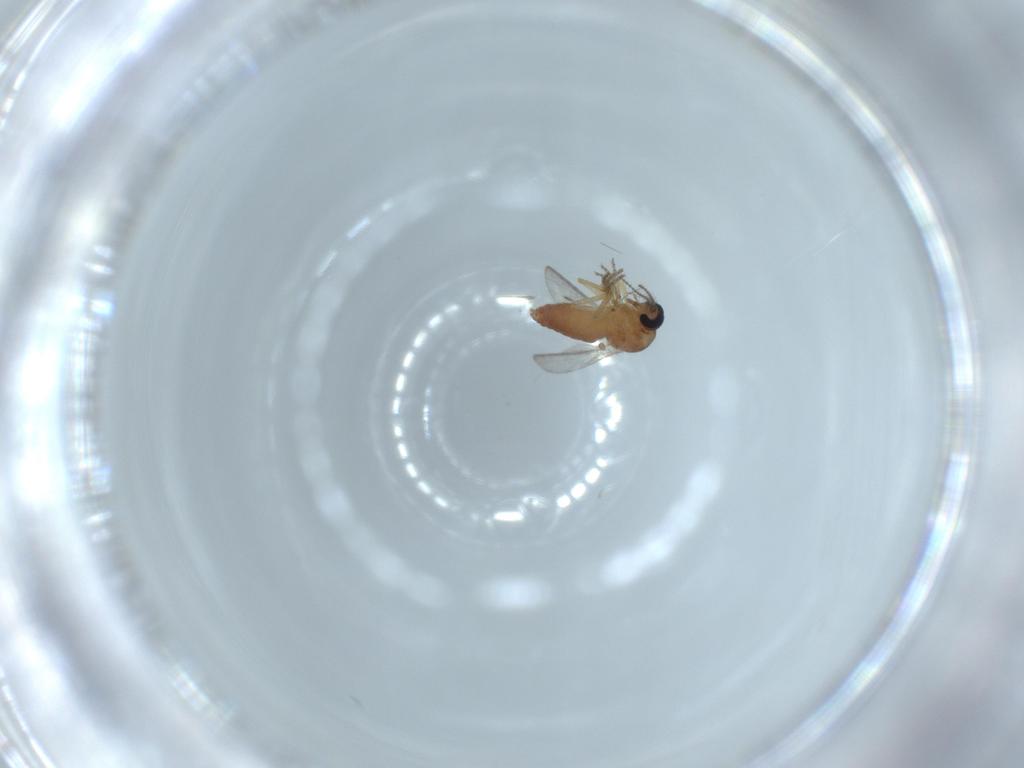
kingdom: Animalia
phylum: Arthropoda
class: Insecta
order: Diptera
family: Ceratopogonidae
